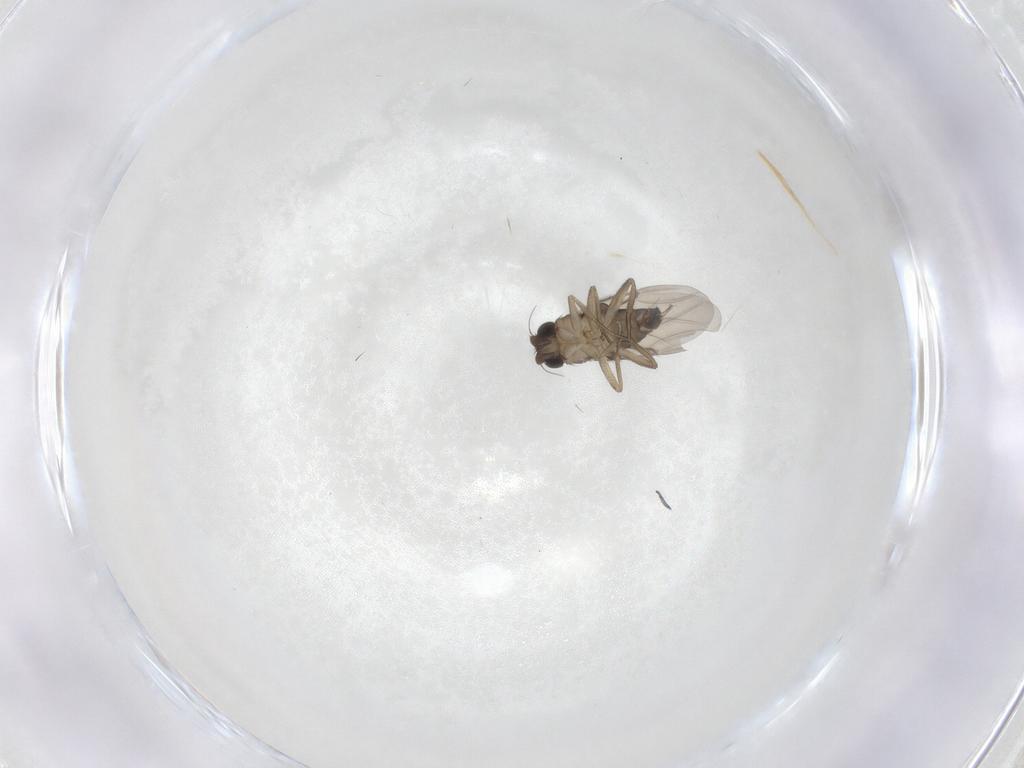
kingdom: Animalia
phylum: Arthropoda
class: Insecta
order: Diptera
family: Phoridae
